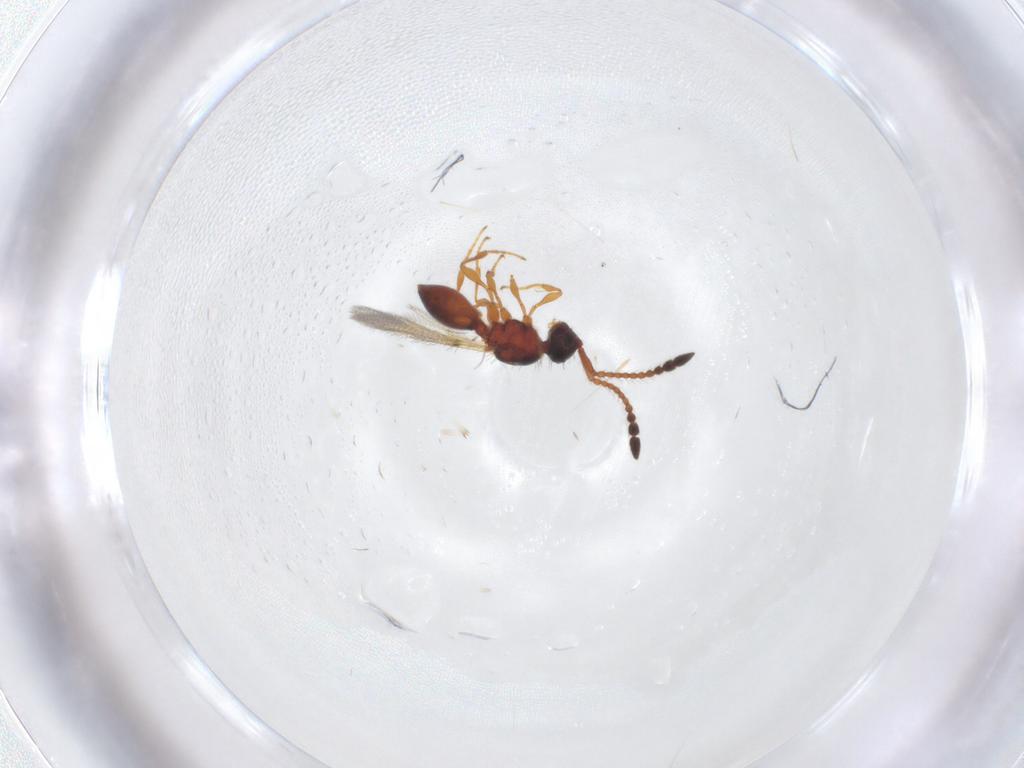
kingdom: Animalia
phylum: Arthropoda
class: Insecta
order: Hymenoptera
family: Diapriidae
